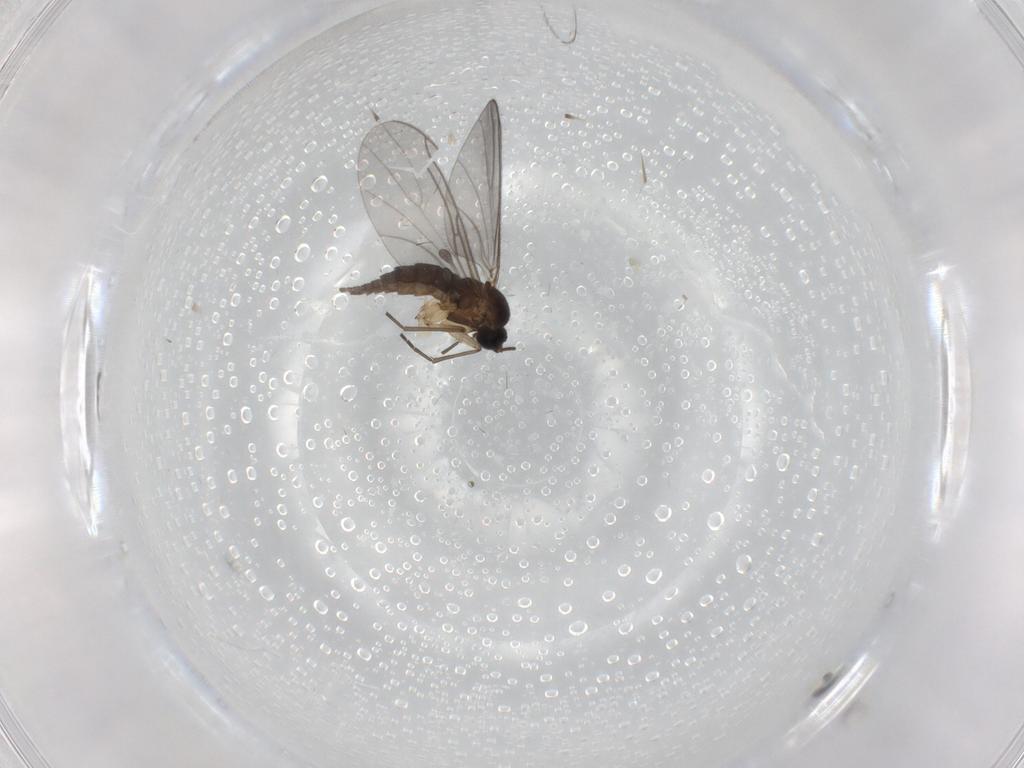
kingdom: Animalia
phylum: Arthropoda
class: Insecta
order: Diptera
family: Sciaridae
